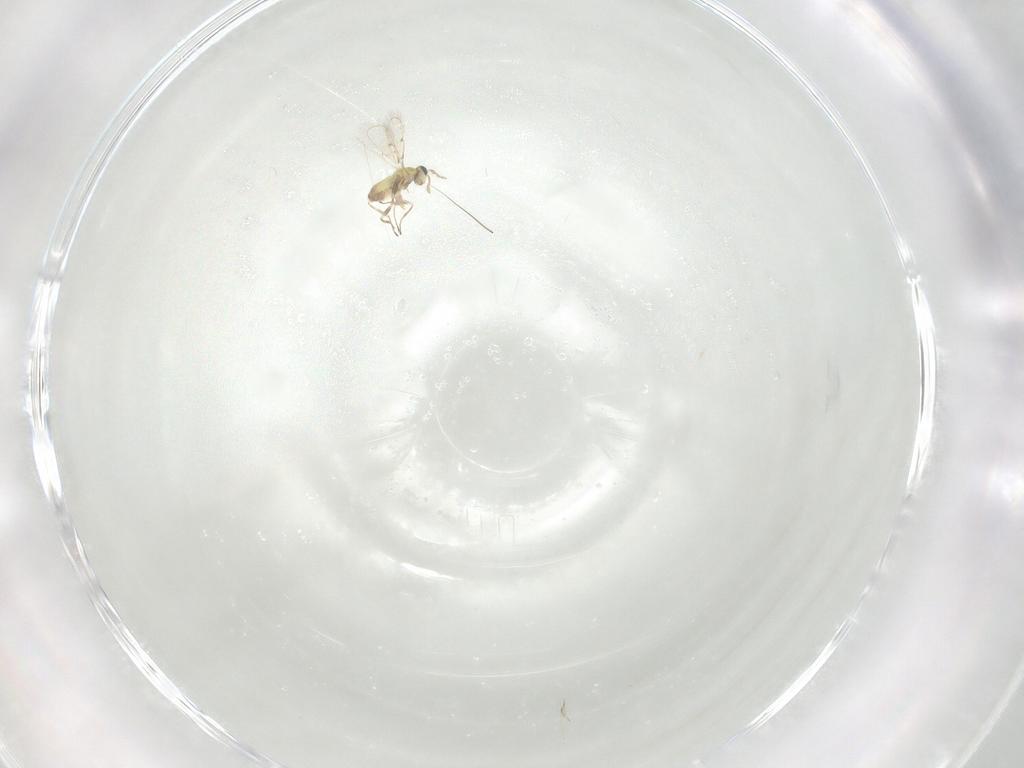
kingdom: Animalia
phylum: Arthropoda
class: Insecta
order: Hymenoptera
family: Trichogrammatidae
